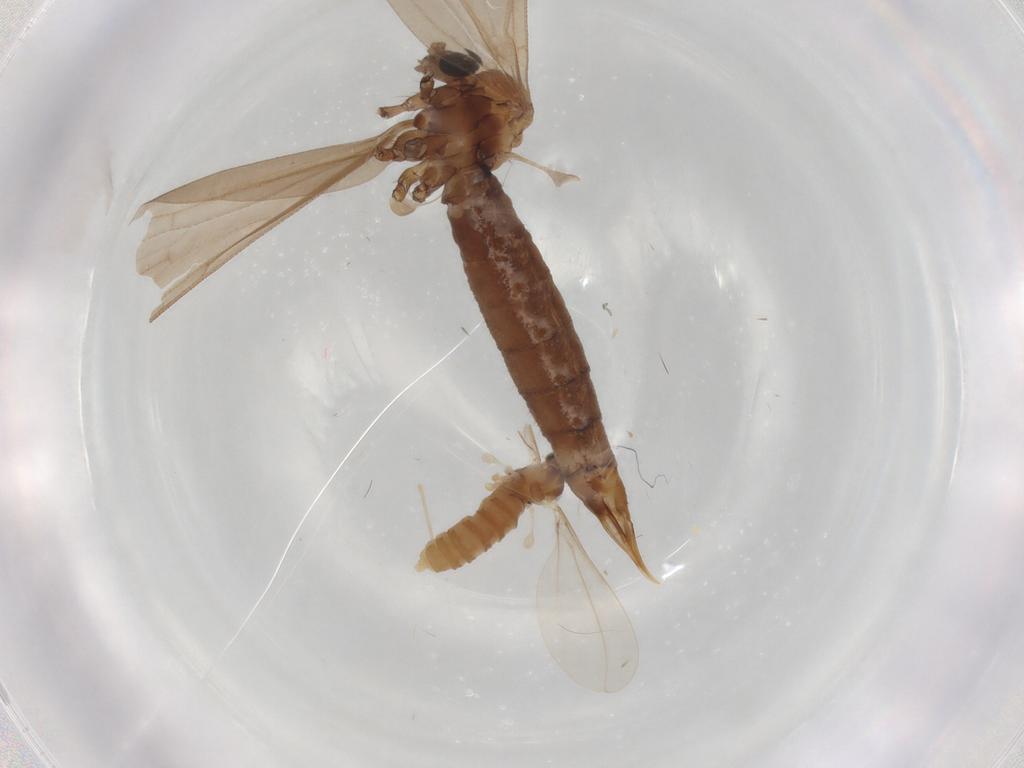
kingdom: Animalia
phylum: Arthropoda
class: Insecta
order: Diptera
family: Limoniidae
